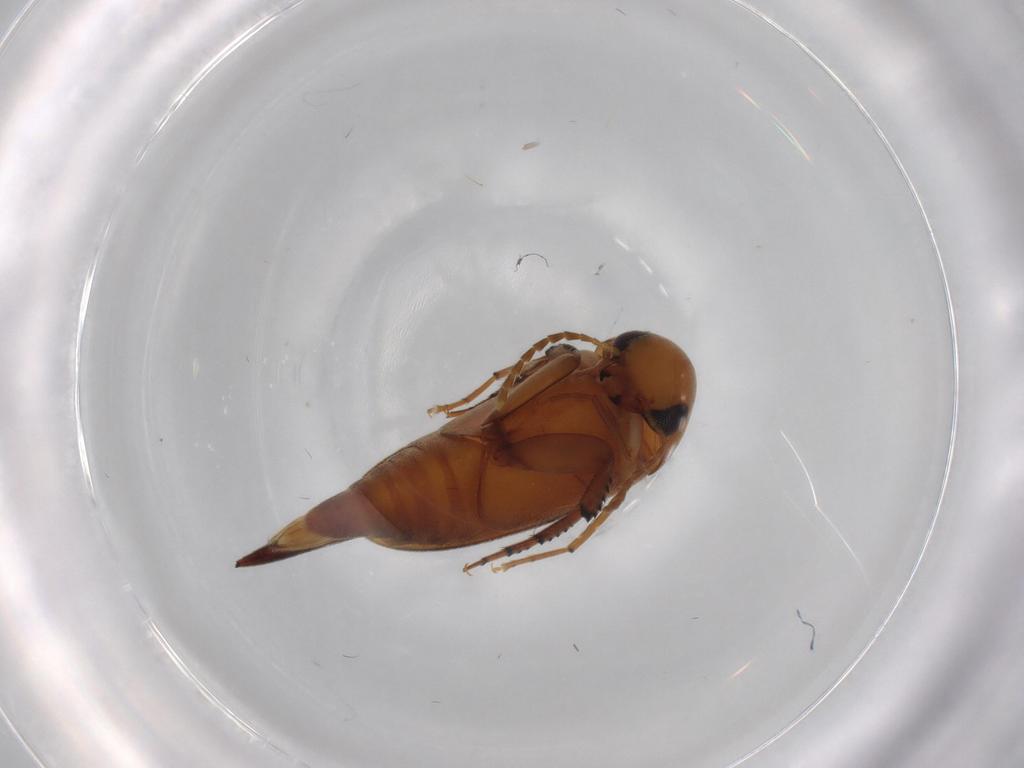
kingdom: Animalia
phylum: Arthropoda
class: Insecta
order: Coleoptera
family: Mordellidae
